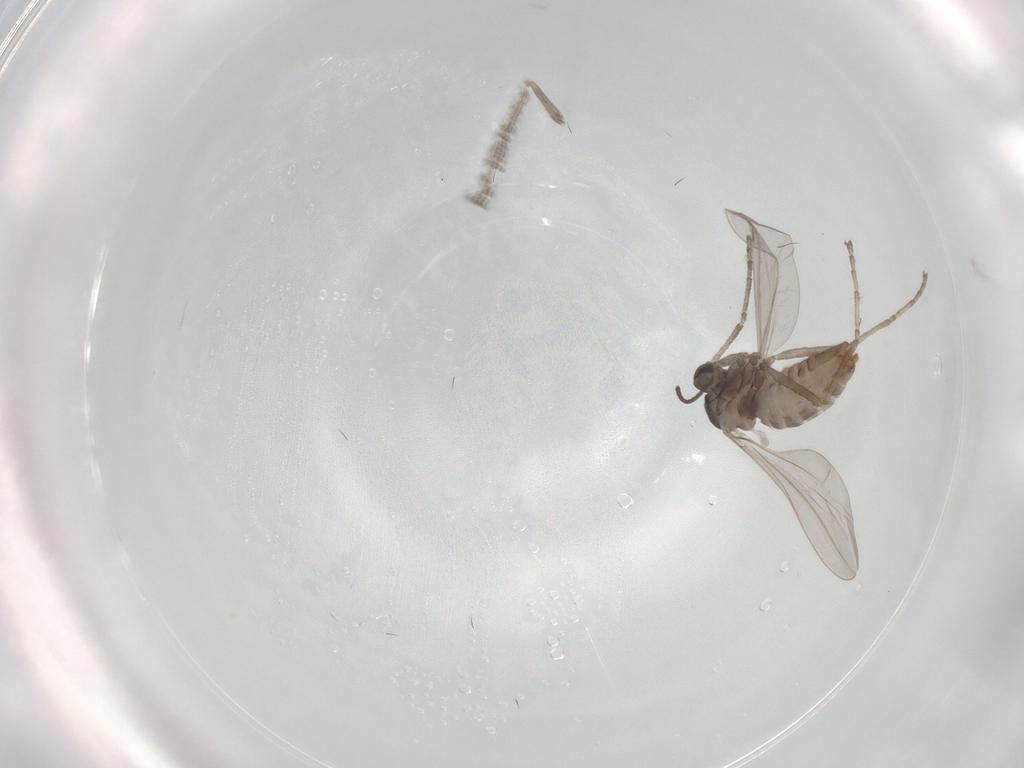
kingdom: Animalia
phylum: Arthropoda
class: Insecta
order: Diptera
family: Cecidomyiidae
